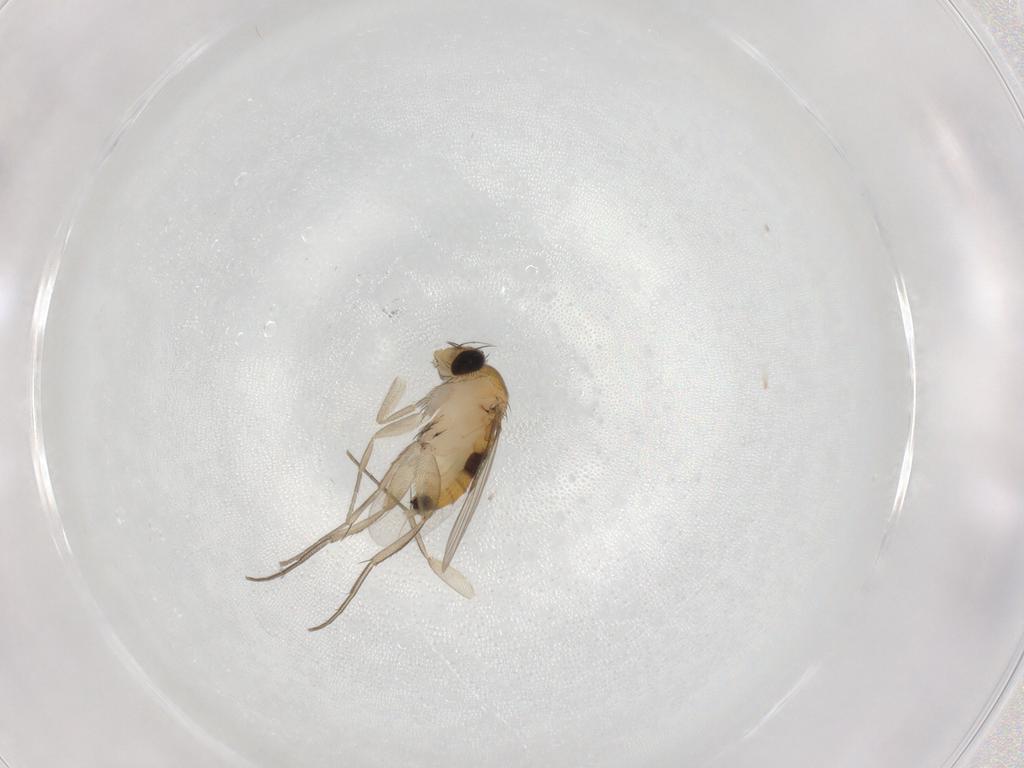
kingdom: Animalia
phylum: Arthropoda
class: Insecta
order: Diptera
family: Phoridae
